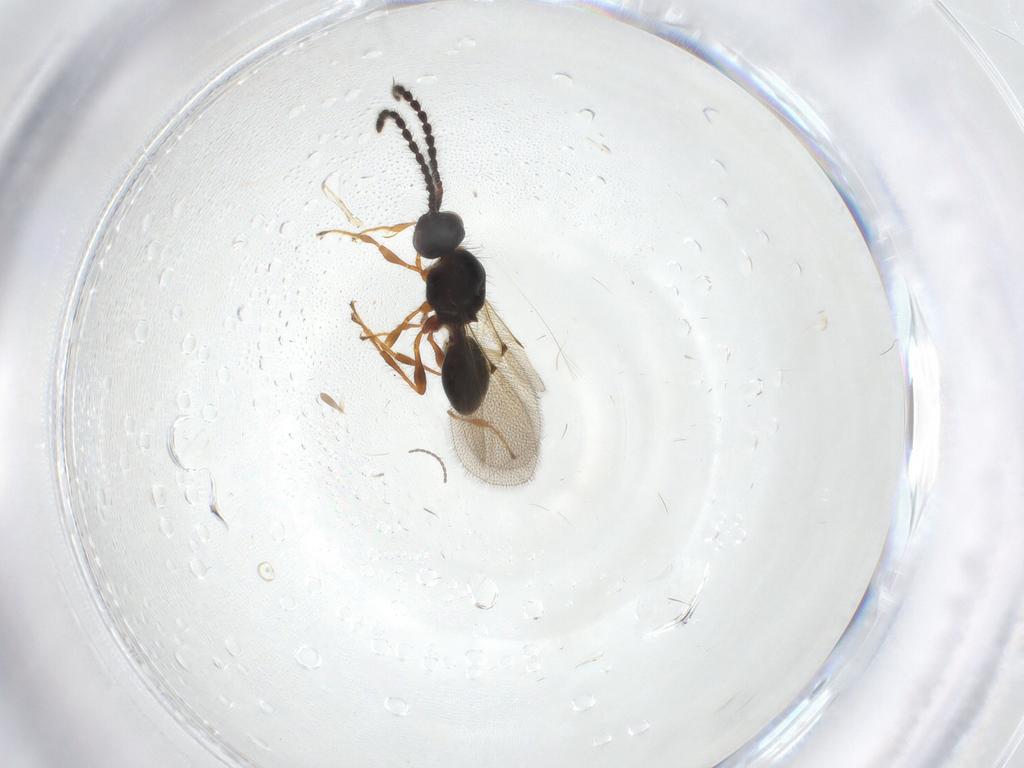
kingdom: Animalia
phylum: Arthropoda
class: Insecta
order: Hymenoptera
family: Diapriidae
